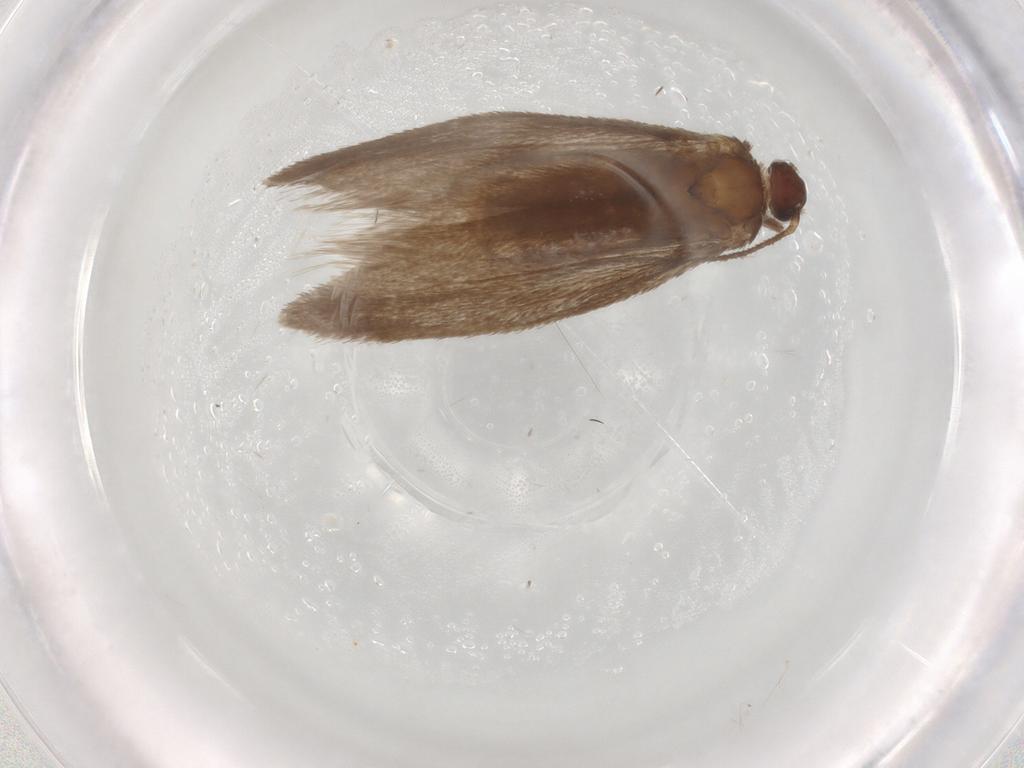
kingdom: Animalia
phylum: Arthropoda
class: Insecta
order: Lepidoptera
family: Limacodidae
